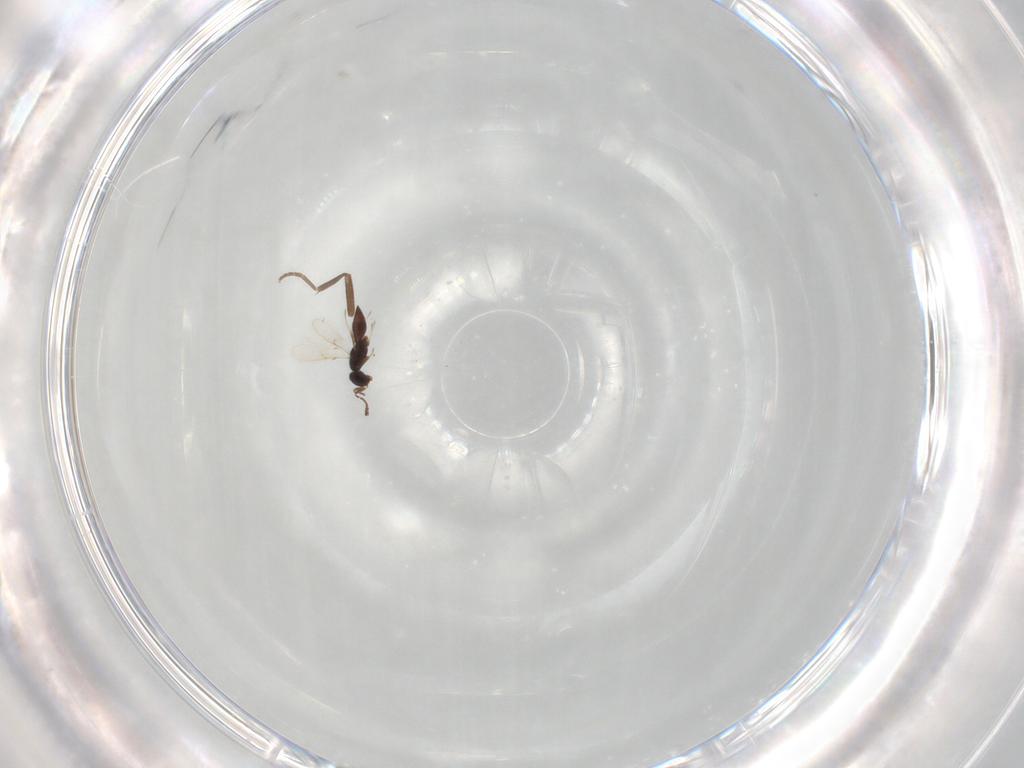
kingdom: Animalia
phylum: Arthropoda
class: Insecta
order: Hymenoptera
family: Scelionidae
